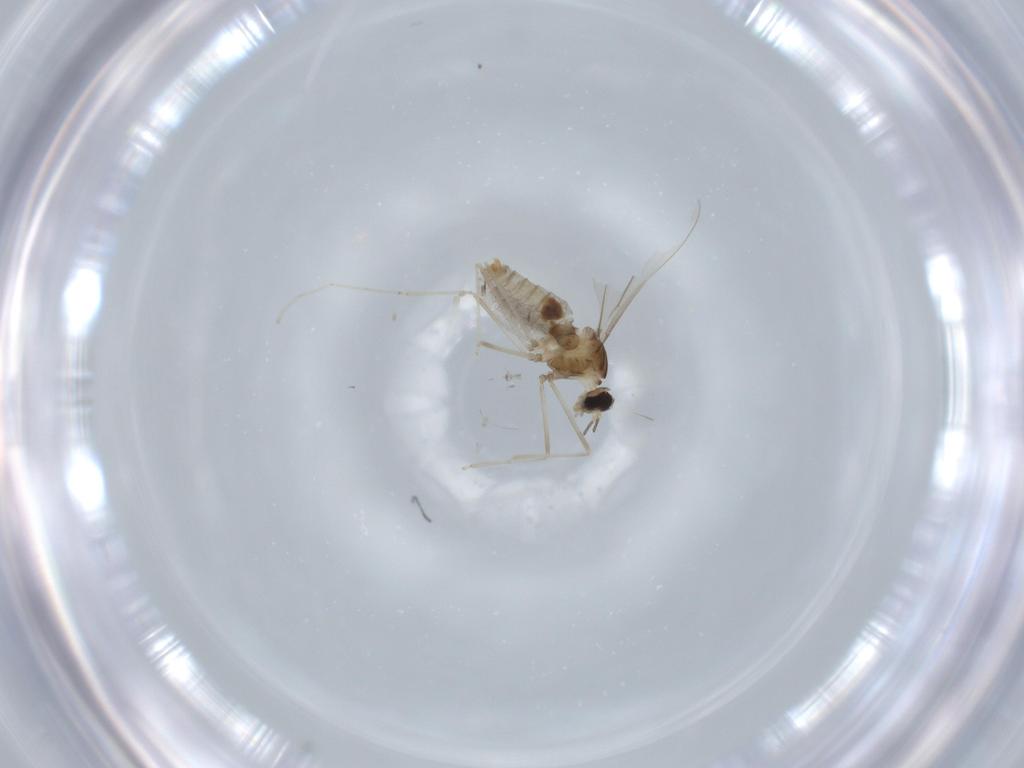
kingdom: Animalia
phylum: Arthropoda
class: Insecta
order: Diptera
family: Cecidomyiidae
